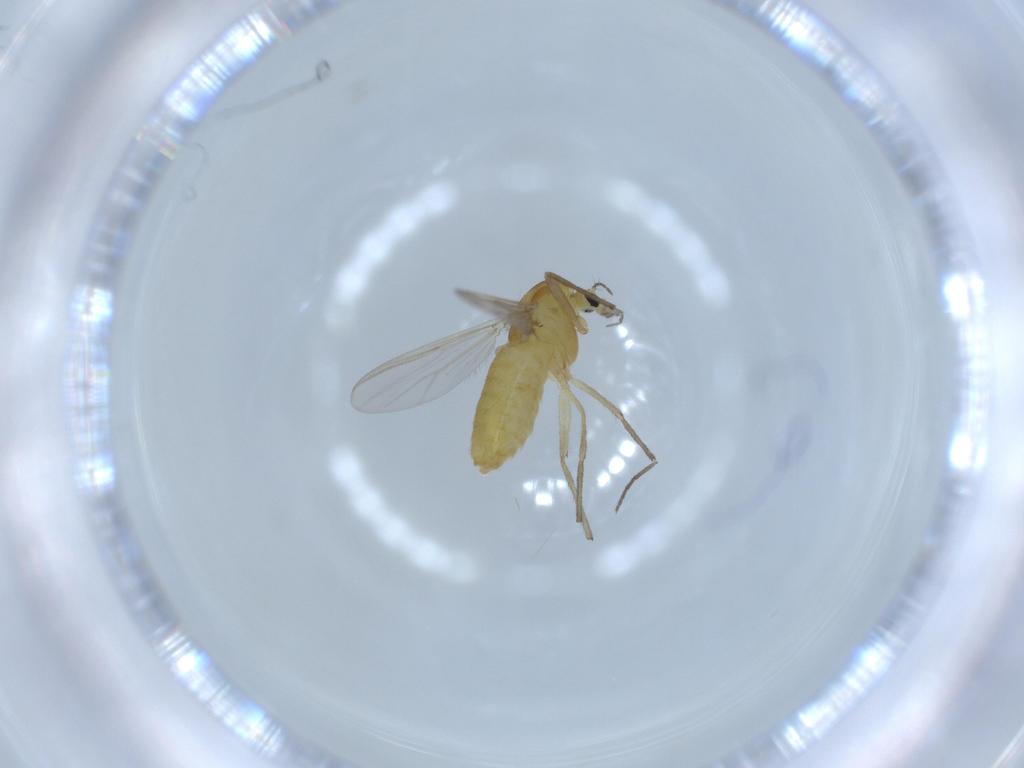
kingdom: Animalia
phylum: Arthropoda
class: Insecta
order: Diptera
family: Chironomidae
